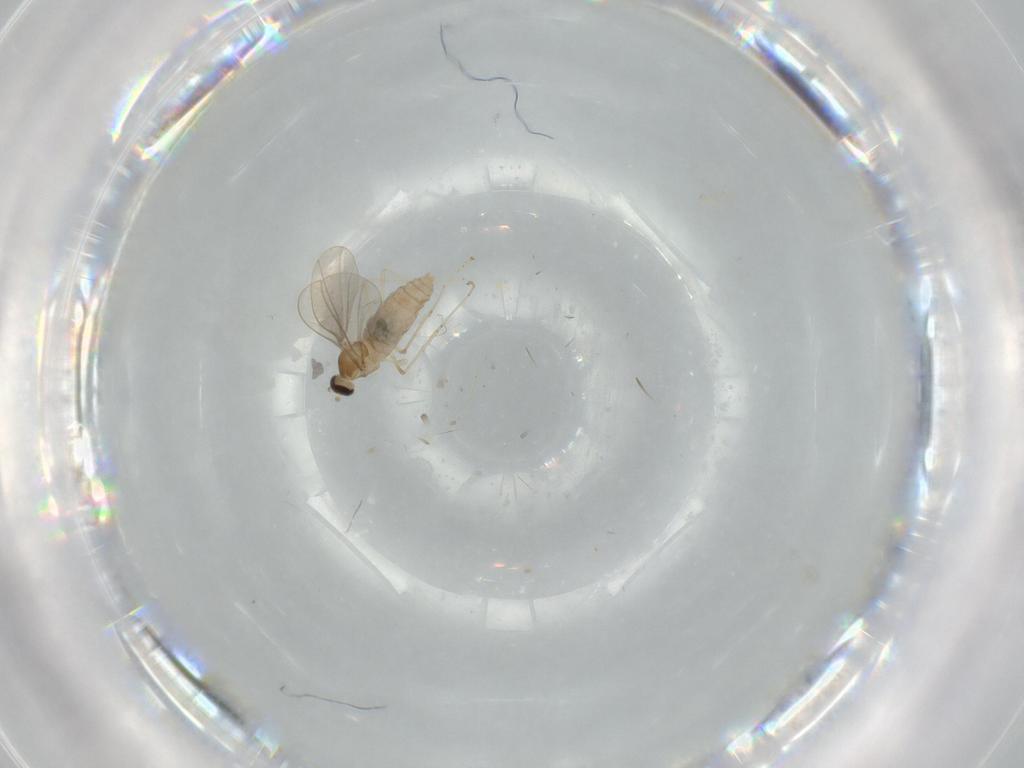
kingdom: Animalia
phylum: Arthropoda
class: Insecta
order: Diptera
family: Cecidomyiidae
